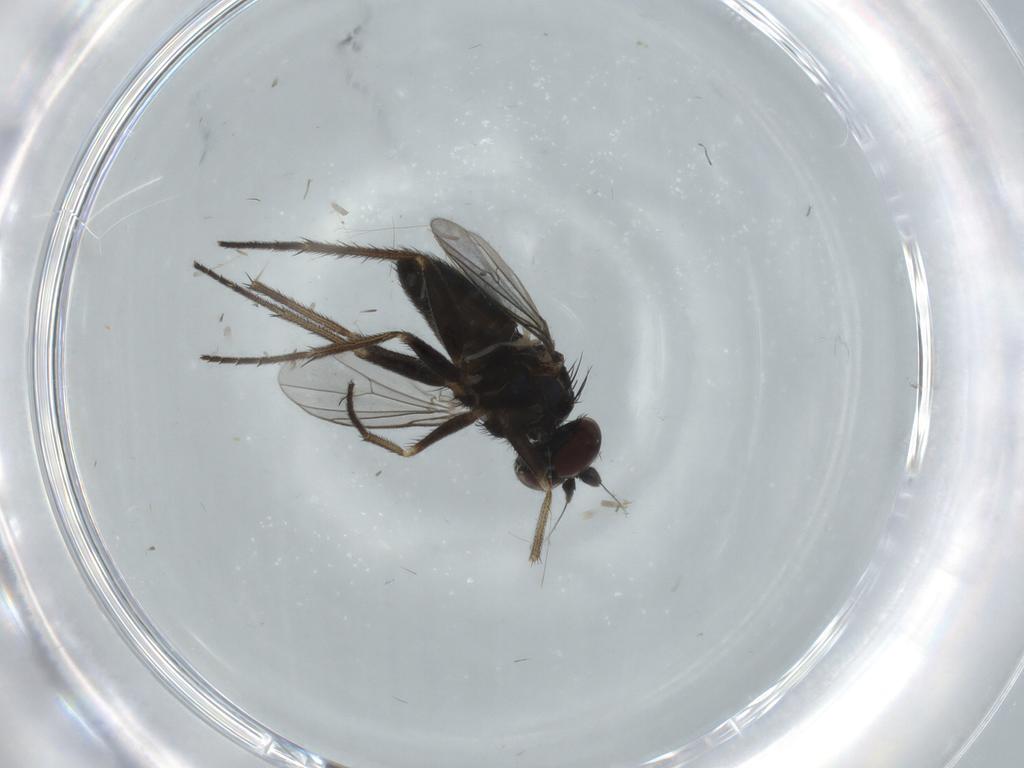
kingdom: Animalia
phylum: Arthropoda
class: Insecta
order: Diptera
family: Dolichopodidae
